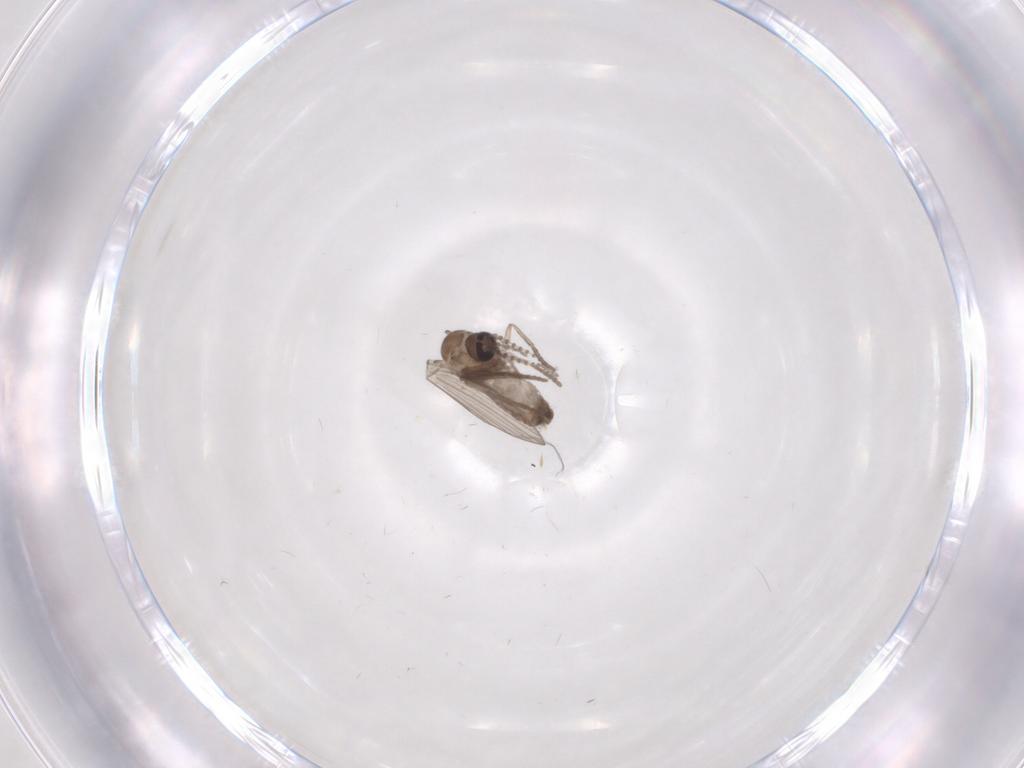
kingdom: Animalia
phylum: Arthropoda
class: Insecta
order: Diptera
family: Psychodidae
